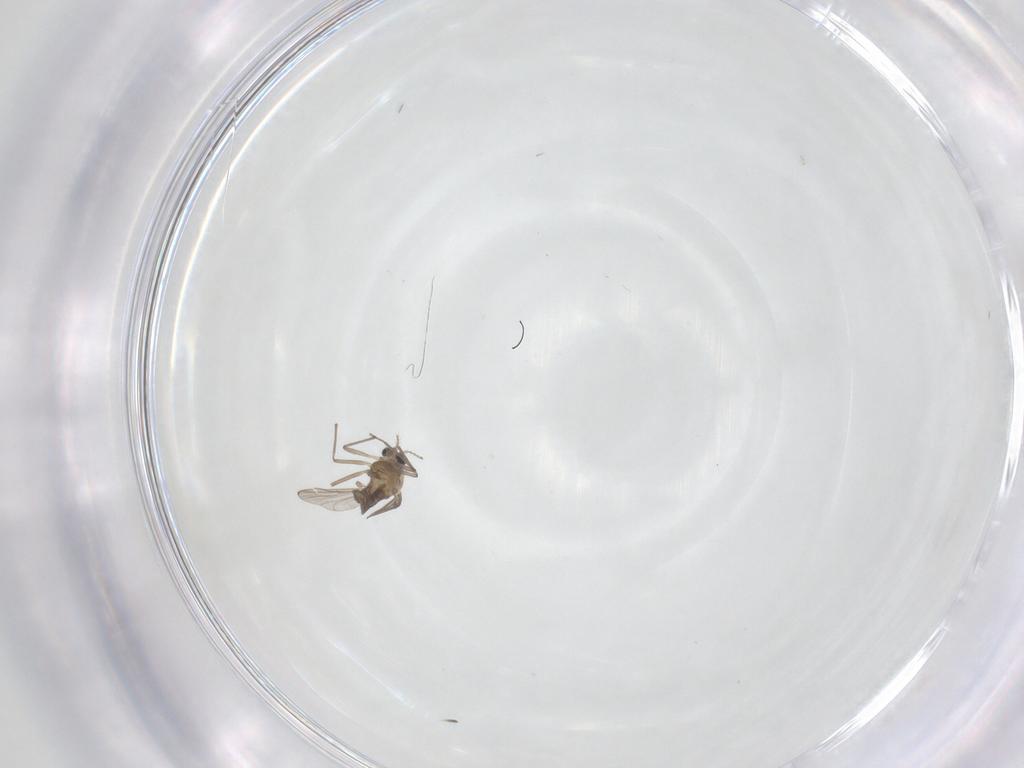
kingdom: Animalia
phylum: Arthropoda
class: Insecta
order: Diptera
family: Chironomidae
